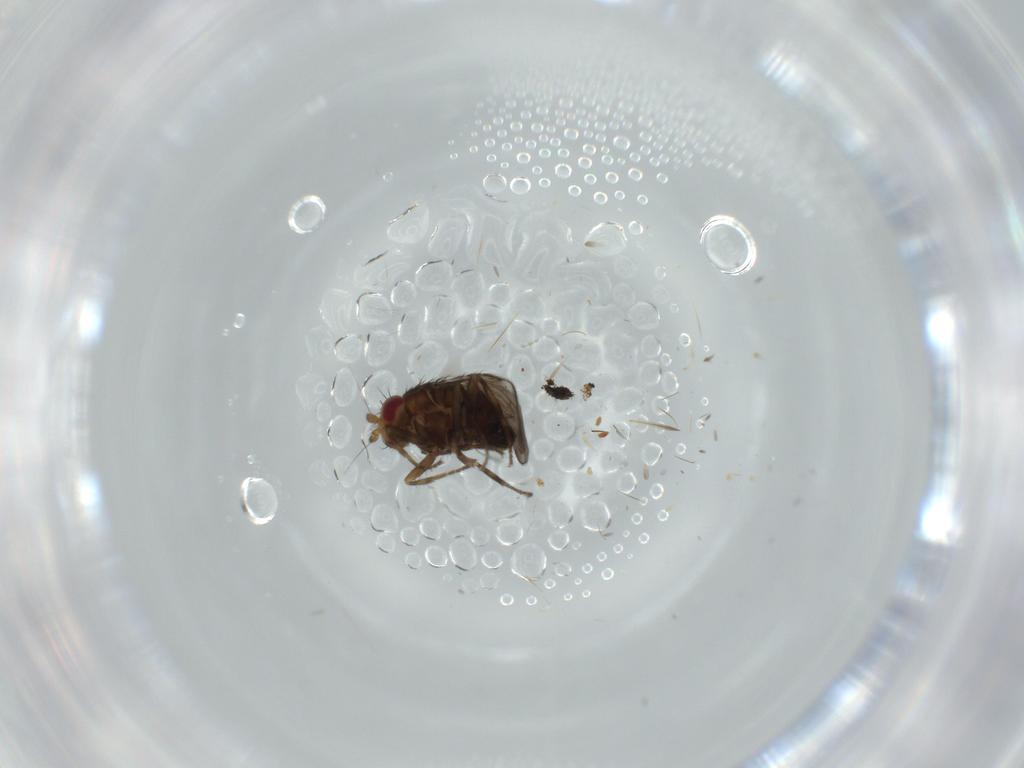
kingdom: Animalia
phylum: Arthropoda
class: Insecta
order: Diptera
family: Sphaeroceridae
